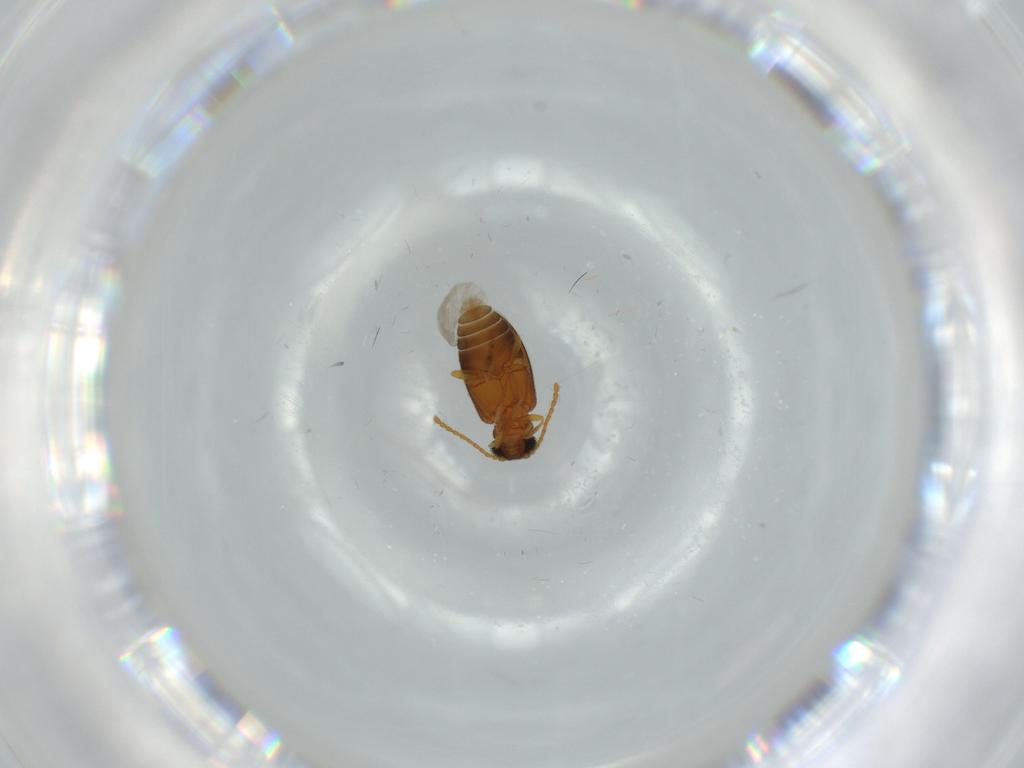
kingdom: Animalia
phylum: Arthropoda
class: Insecta
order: Coleoptera
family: Aderidae
